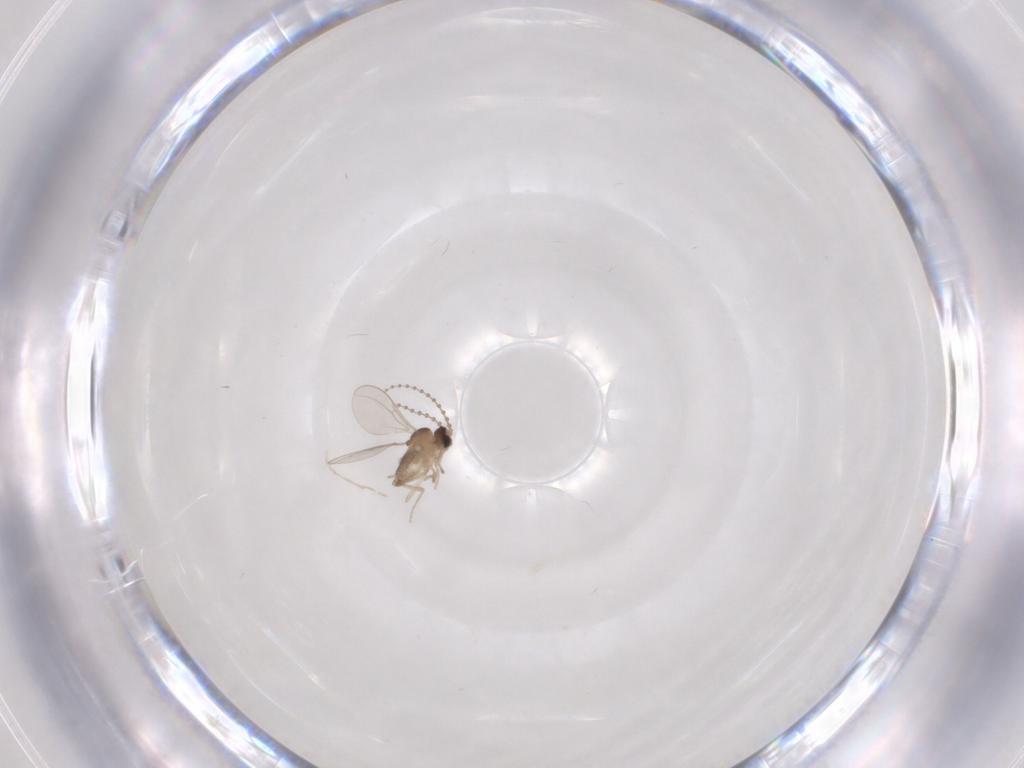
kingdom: Animalia
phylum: Arthropoda
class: Insecta
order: Diptera
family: Cecidomyiidae
